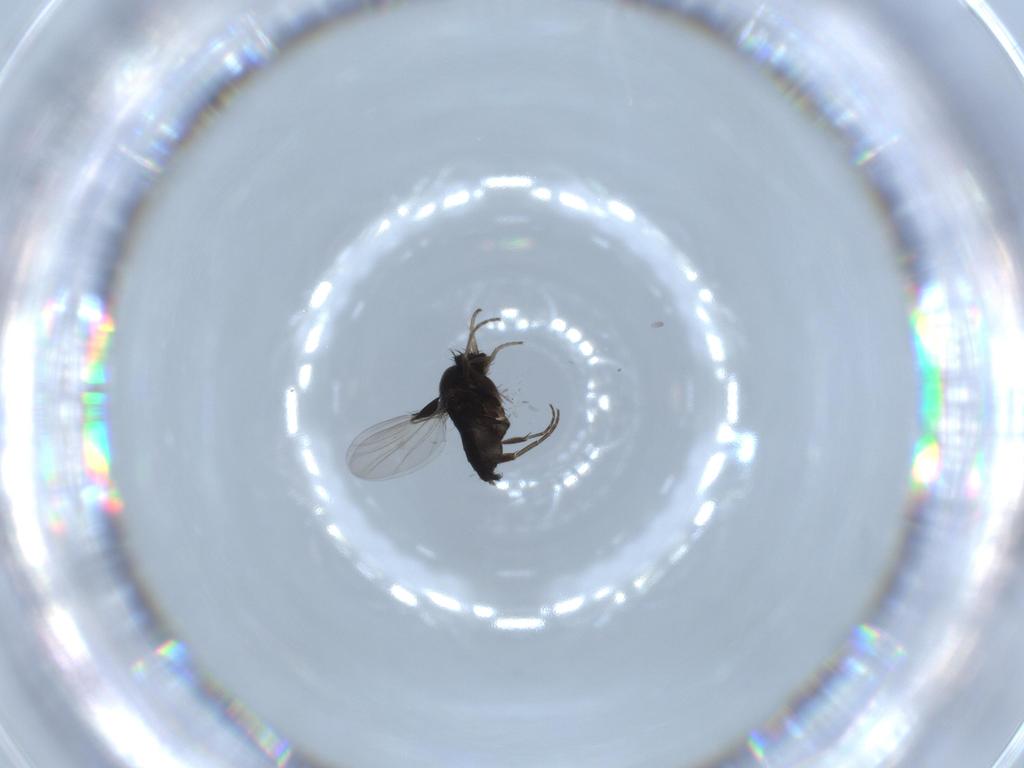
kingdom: Animalia
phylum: Arthropoda
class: Insecta
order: Diptera
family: Phoridae
